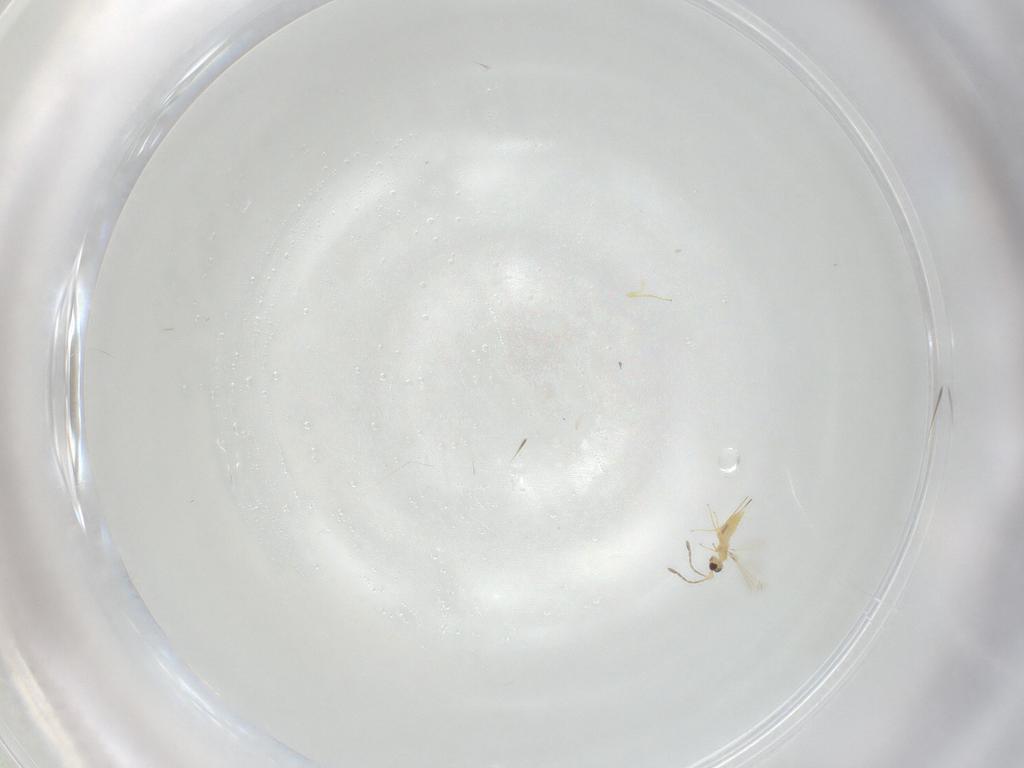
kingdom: Animalia
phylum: Arthropoda
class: Insecta
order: Hymenoptera
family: Mymaridae
